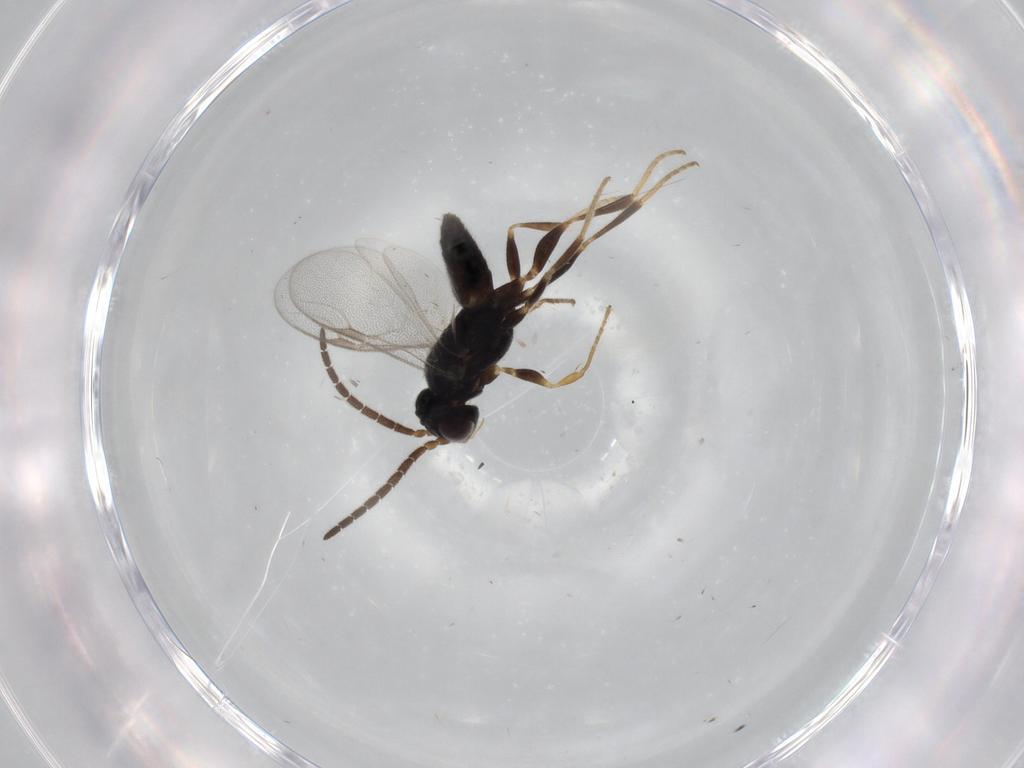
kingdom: Animalia
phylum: Arthropoda
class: Insecta
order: Hymenoptera
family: Dryinidae
